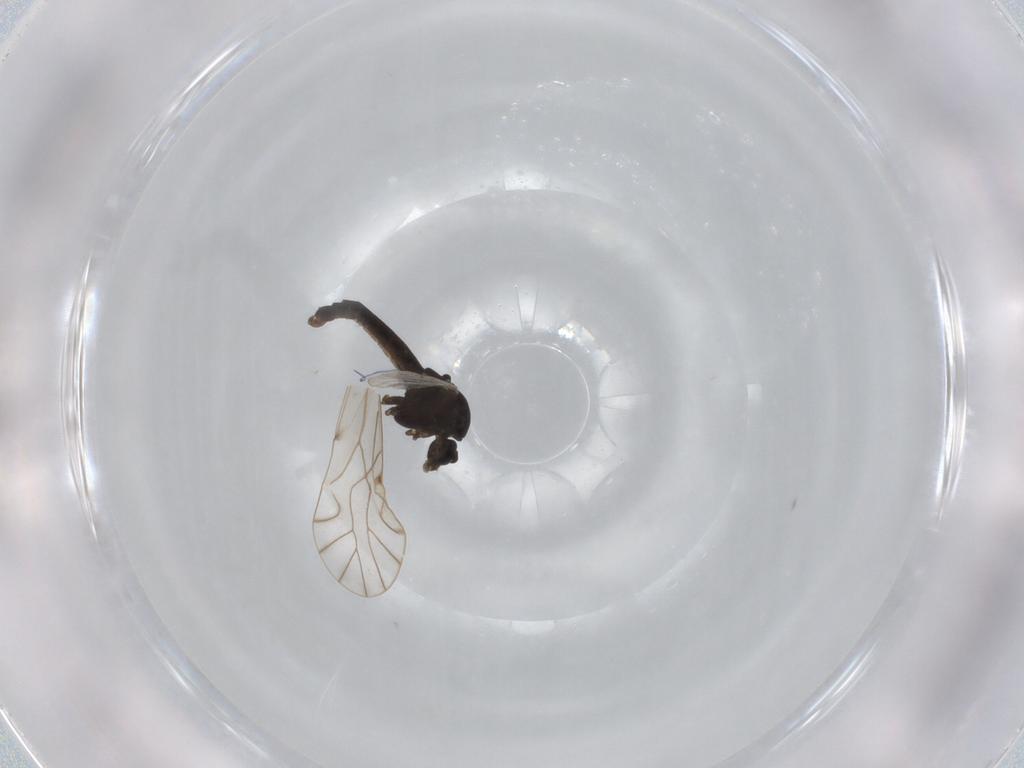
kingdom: Animalia
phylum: Arthropoda
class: Insecta
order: Diptera
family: Chironomidae
